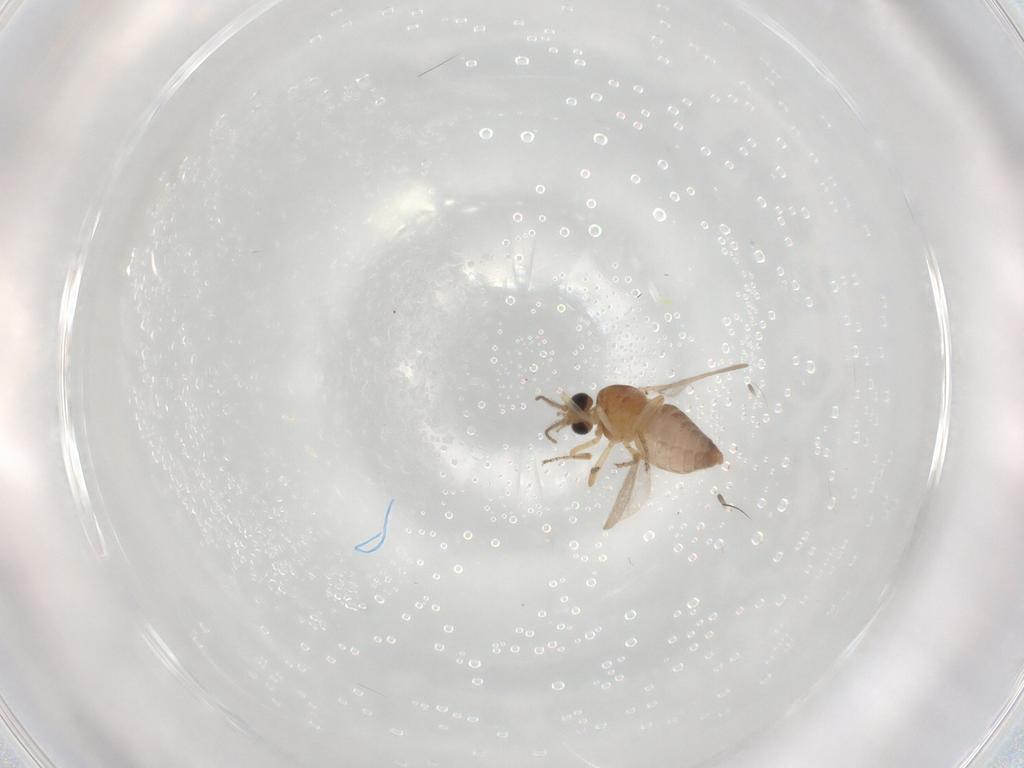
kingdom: Animalia
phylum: Arthropoda
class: Insecta
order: Diptera
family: Ceratopogonidae
